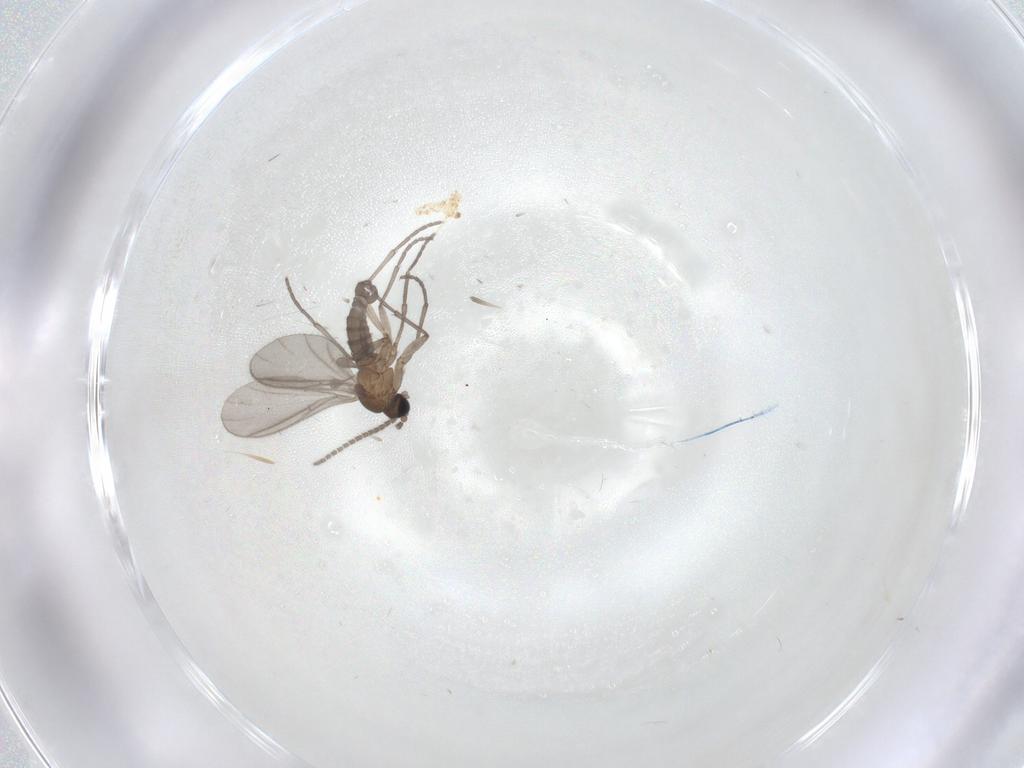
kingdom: Animalia
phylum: Arthropoda
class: Insecta
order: Diptera
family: Sciaridae
